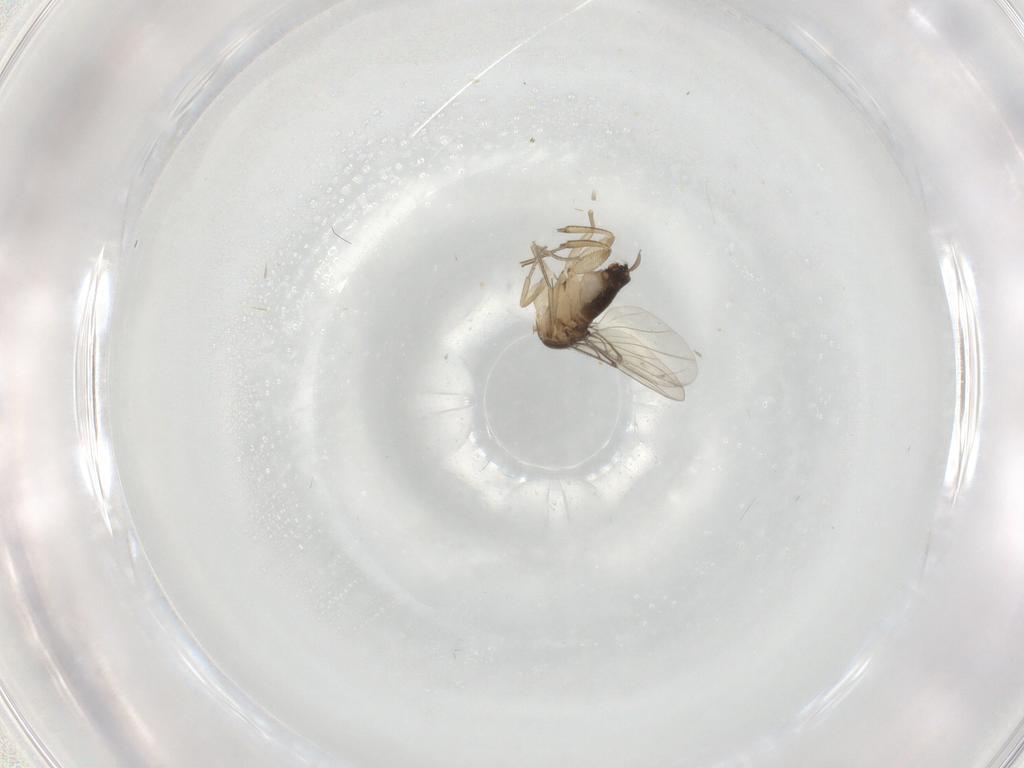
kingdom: Animalia
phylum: Arthropoda
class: Insecta
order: Diptera
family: Phoridae
